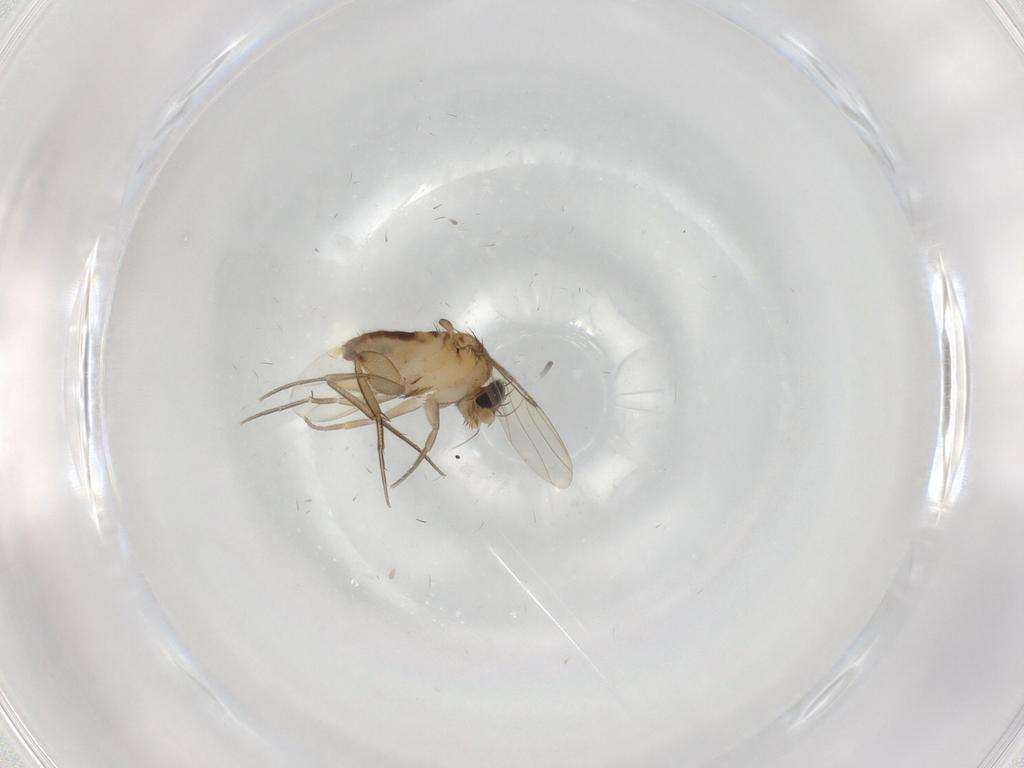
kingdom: Animalia
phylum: Arthropoda
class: Insecta
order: Diptera
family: Phoridae
